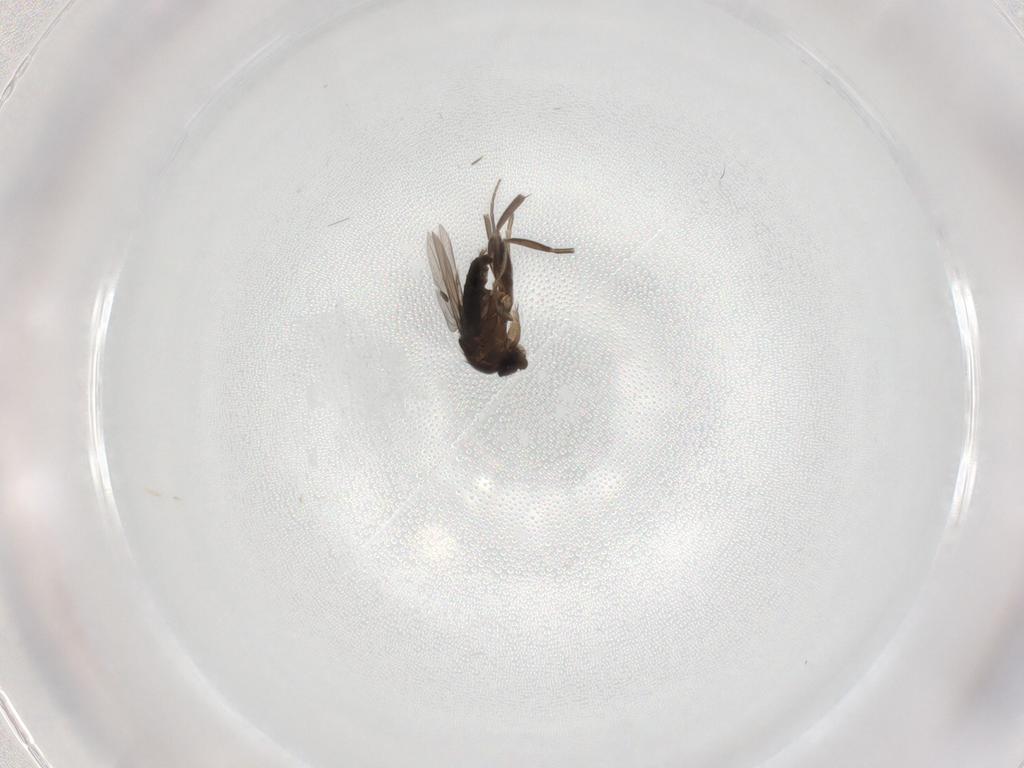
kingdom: Animalia
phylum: Arthropoda
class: Insecta
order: Diptera
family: Phoridae
